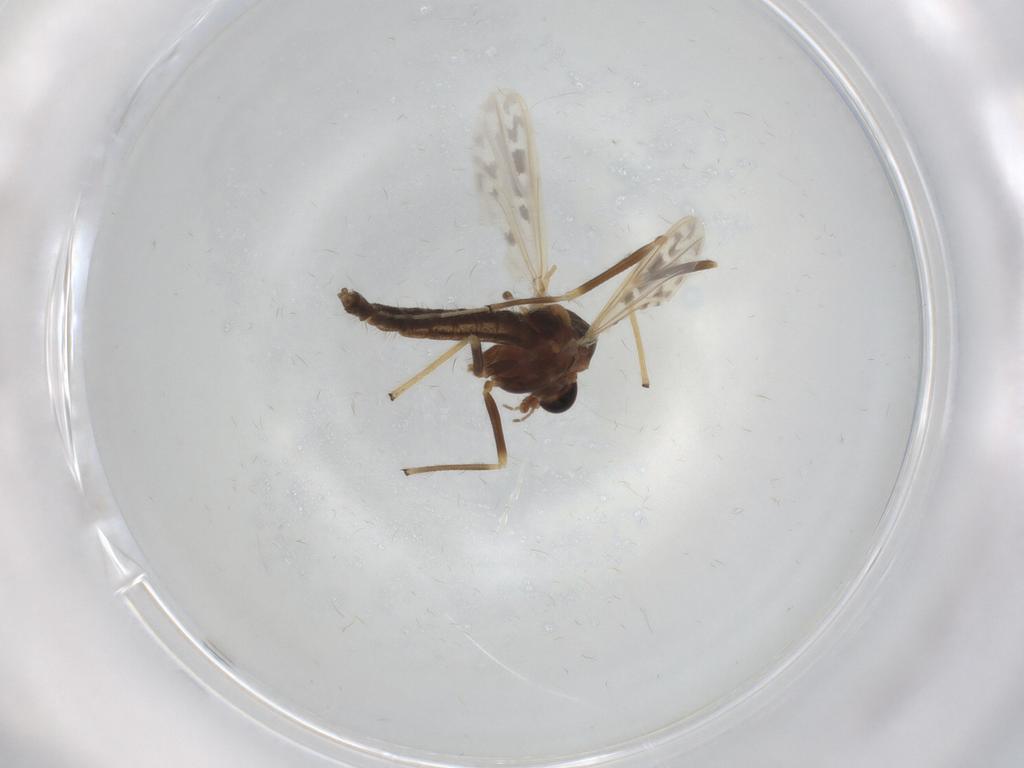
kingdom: Animalia
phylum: Arthropoda
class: Insecta
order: Diptera
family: Chironomidae
